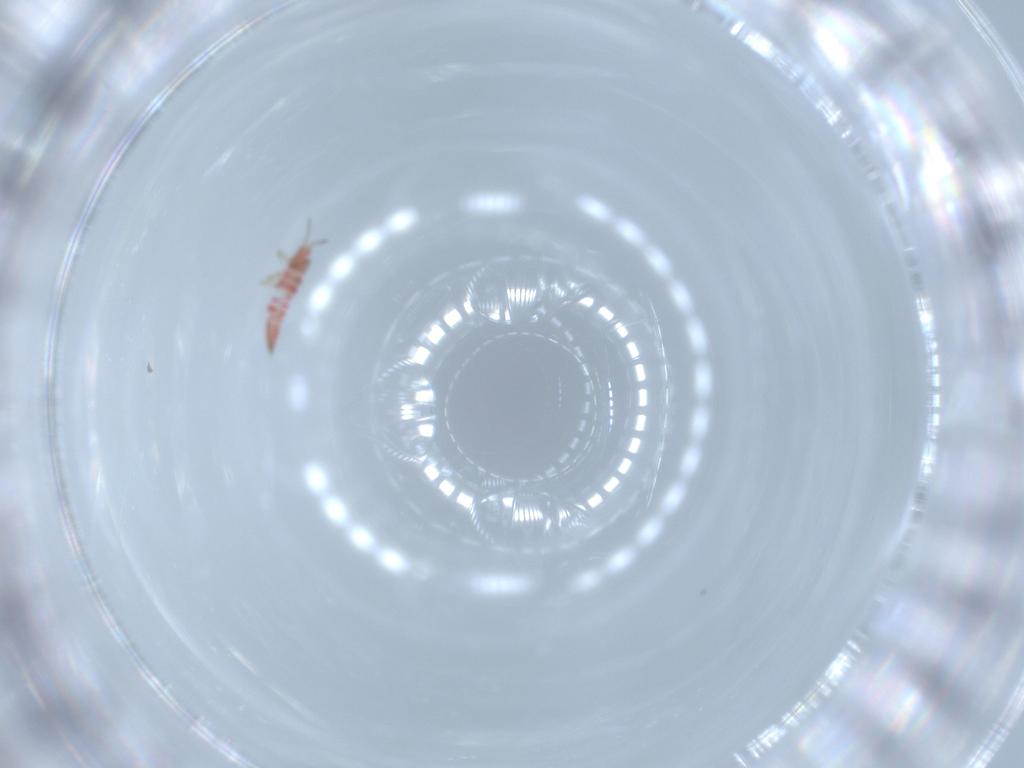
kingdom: Animalia
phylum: Arthropoda
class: Insecta
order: Thysanoptera
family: Phlaeothripidae
